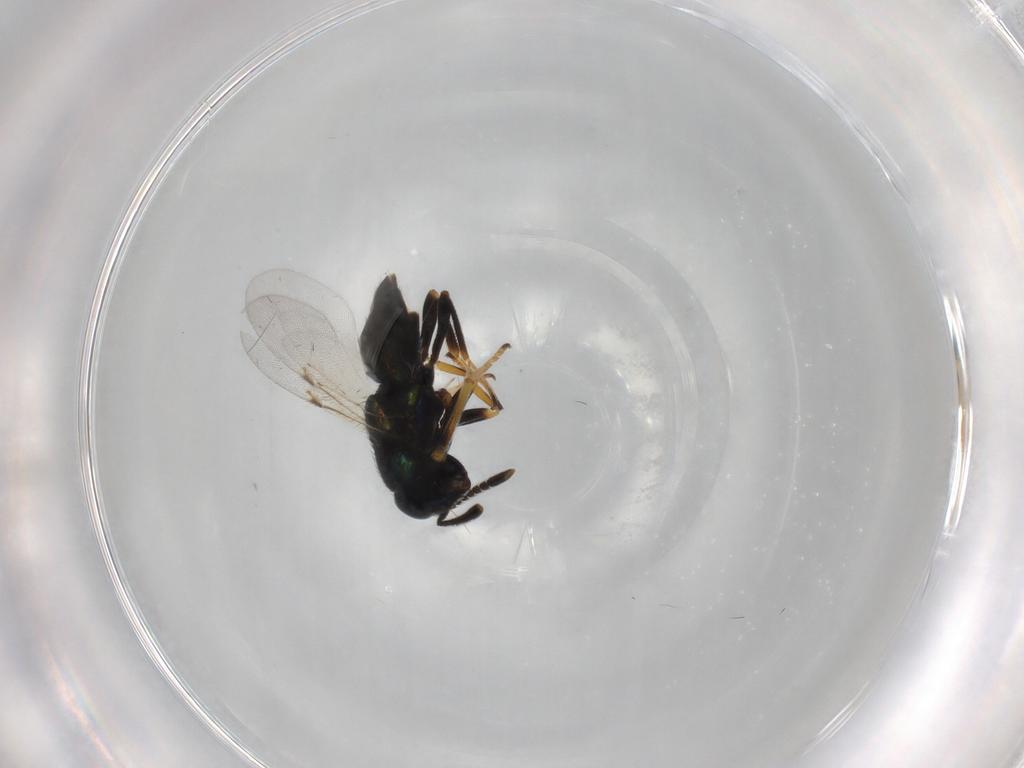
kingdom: Animalia
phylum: Arthropoda
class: Insecta
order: Hymenoptera
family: Encyrtidae
